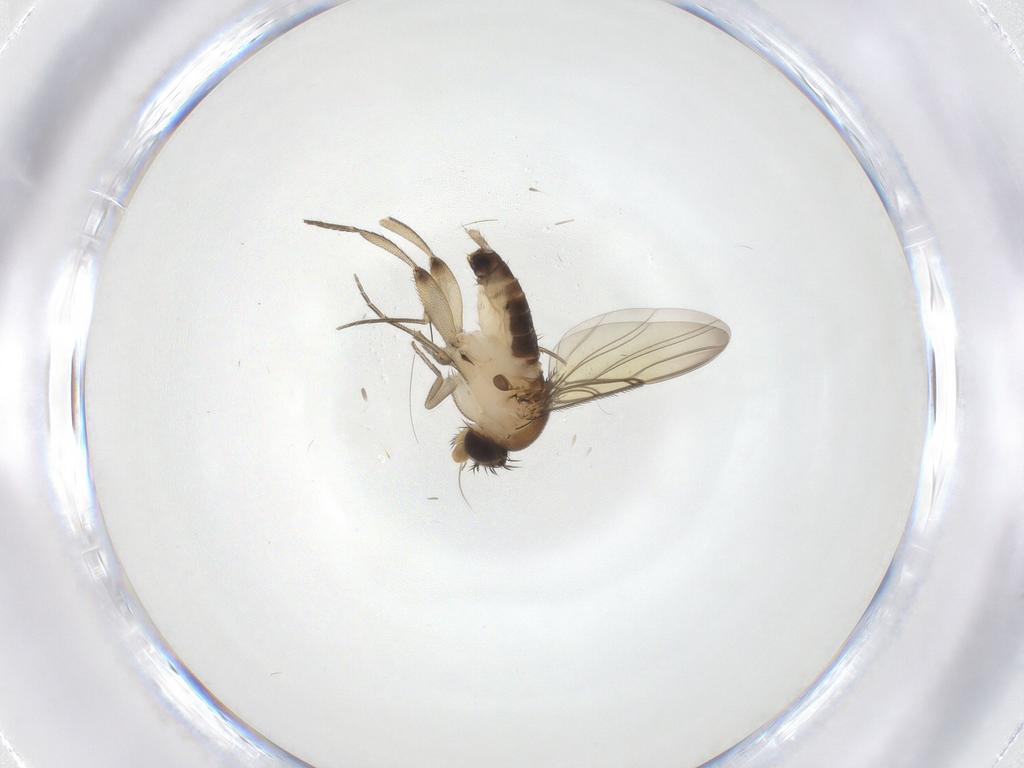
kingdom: Animalia
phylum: Arthropoda
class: Insecta
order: Diptera
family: Phoridae
